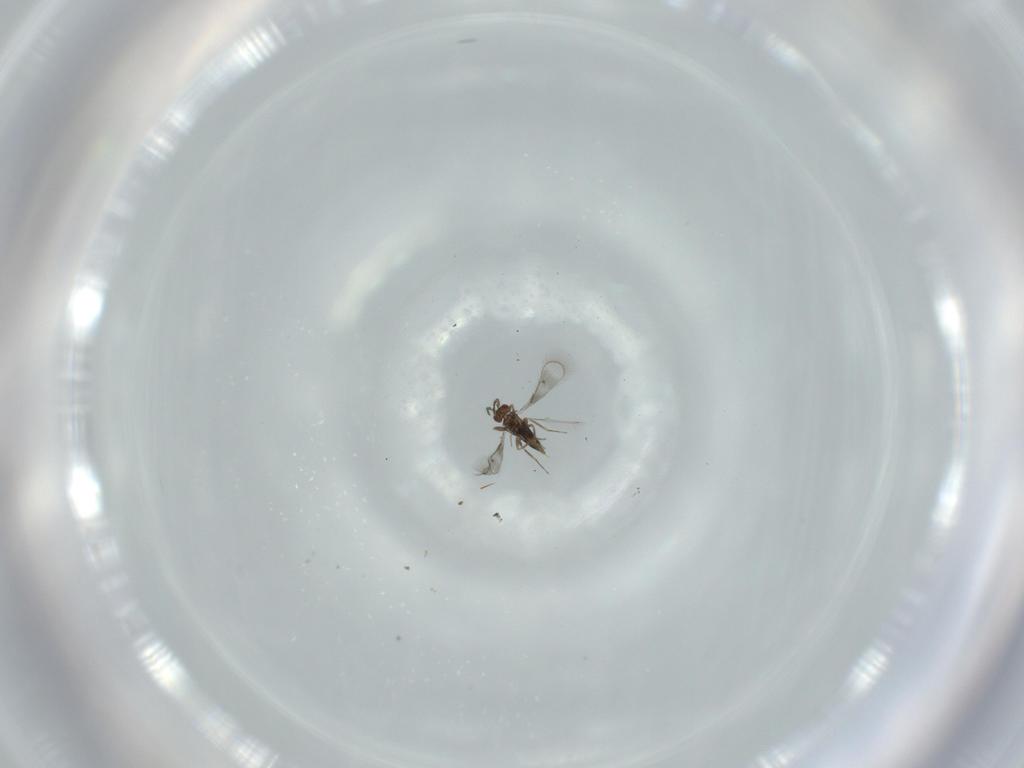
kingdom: Animalia
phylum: Arthropoda
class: Insecta
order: Hymenoptera
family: Trichogrammatidae
